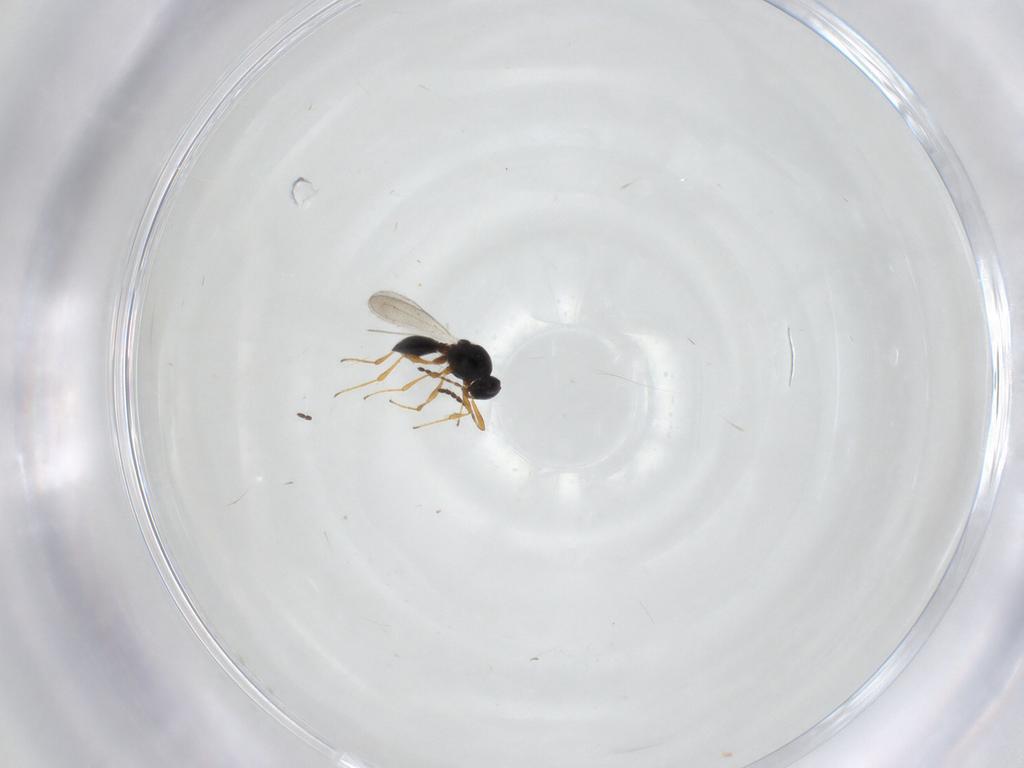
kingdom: Animalia
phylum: Arthropoda
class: Insecta
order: Hymenoptera
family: Platygastridae
